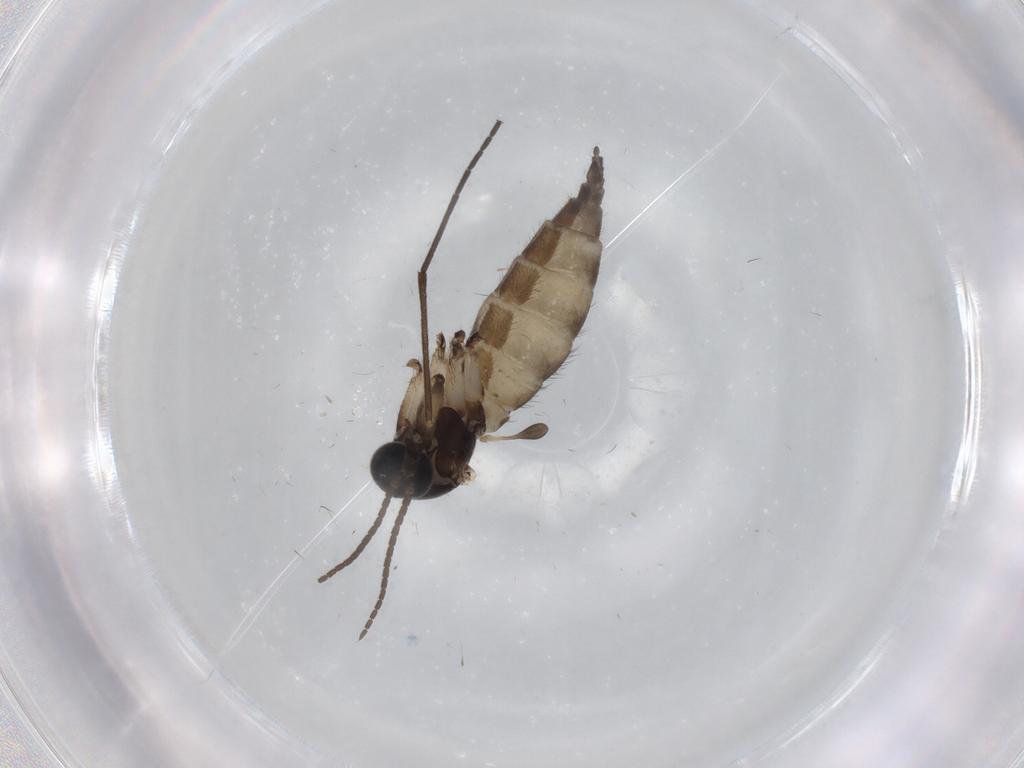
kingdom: Animalia
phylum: Arthropoda
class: Insecta
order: Diptera
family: Sciaridae
